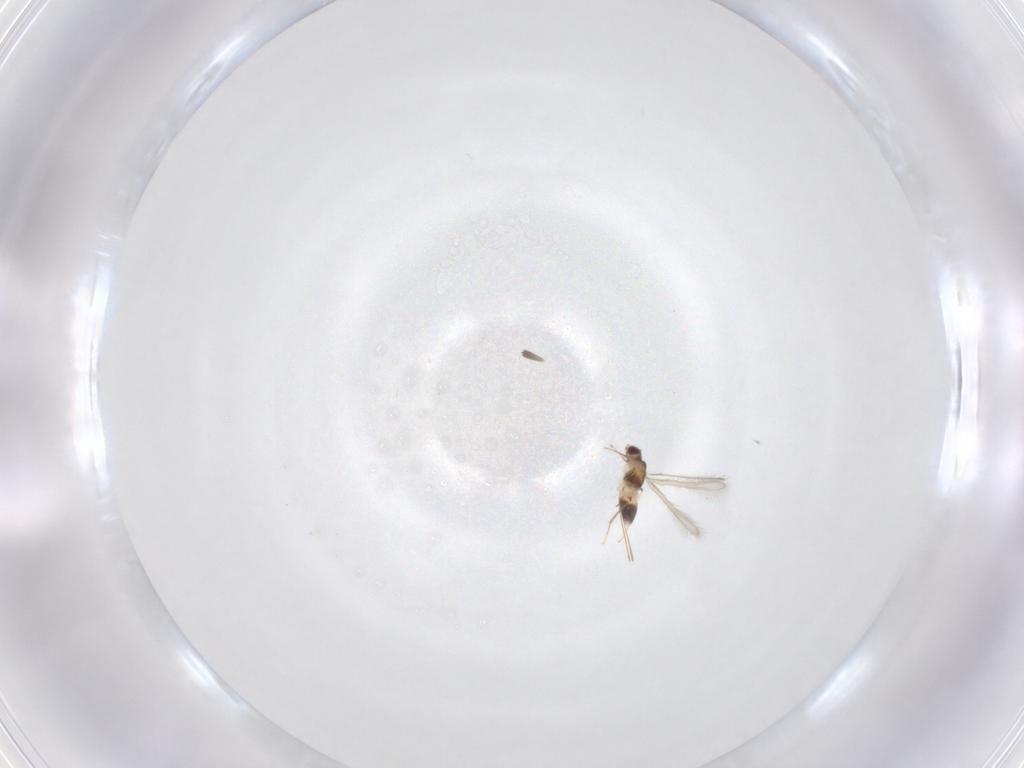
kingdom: Animalia
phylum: Arthropoda
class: Insecta
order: Hymenoptera
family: Mymaridae
